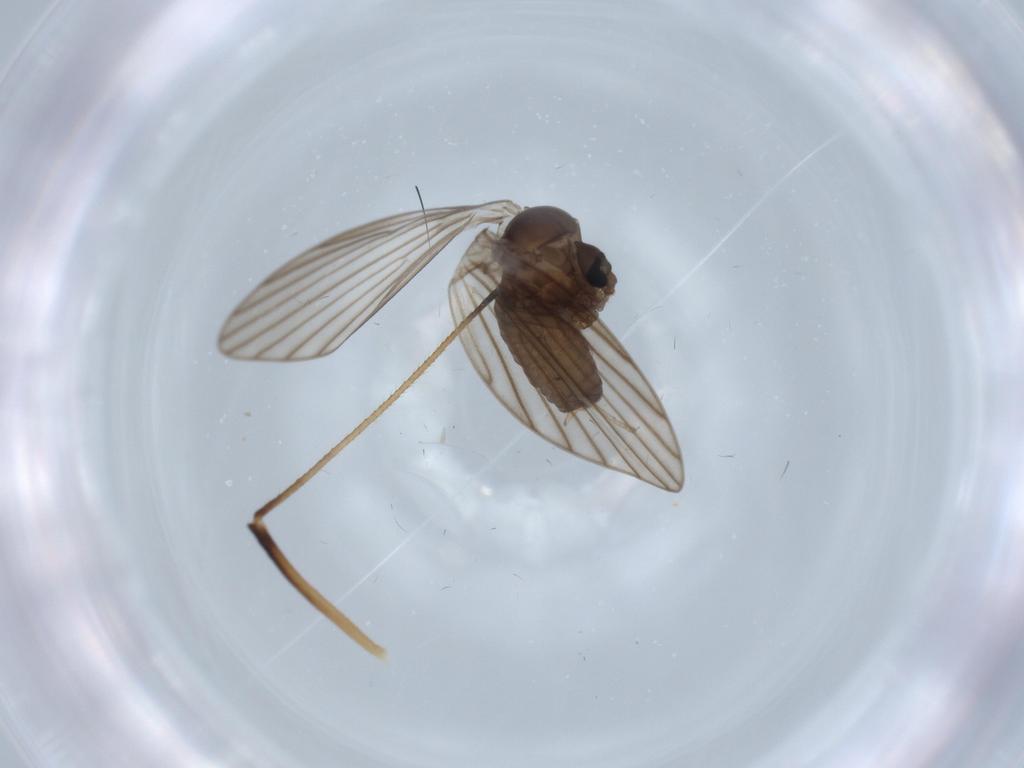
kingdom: Animalia
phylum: Arthropoda
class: Insecta
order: Diptera
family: Psychodidae
